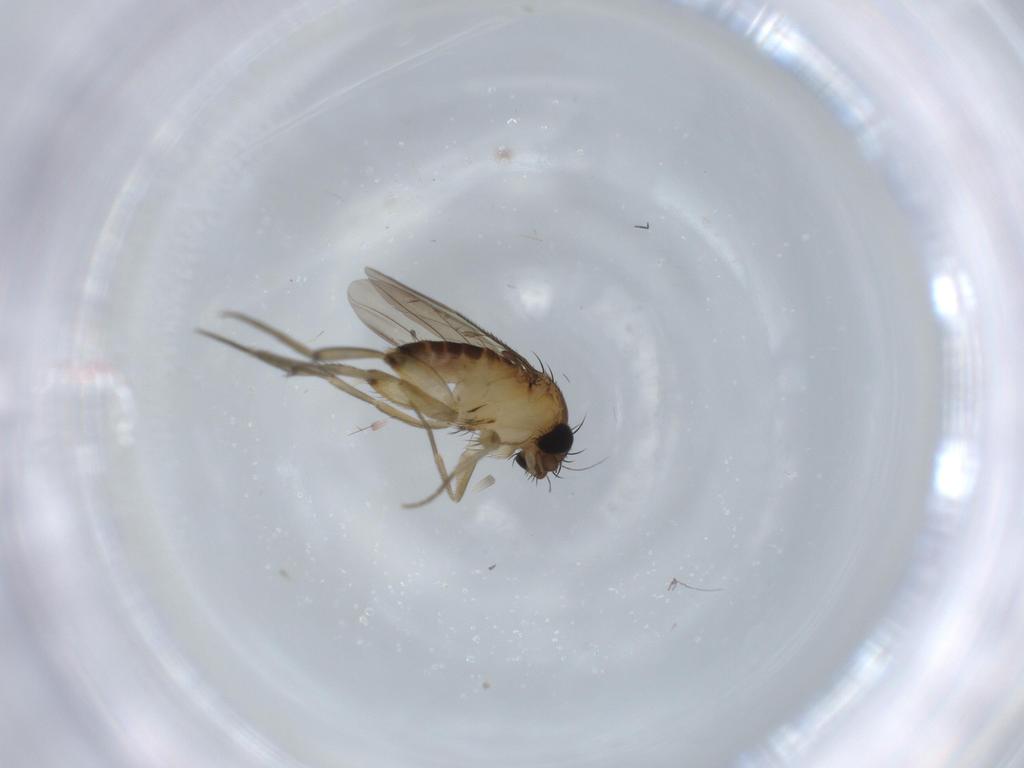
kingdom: Animalia
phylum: Arthropoda
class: Insecta
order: Diptera
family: Phoridae
